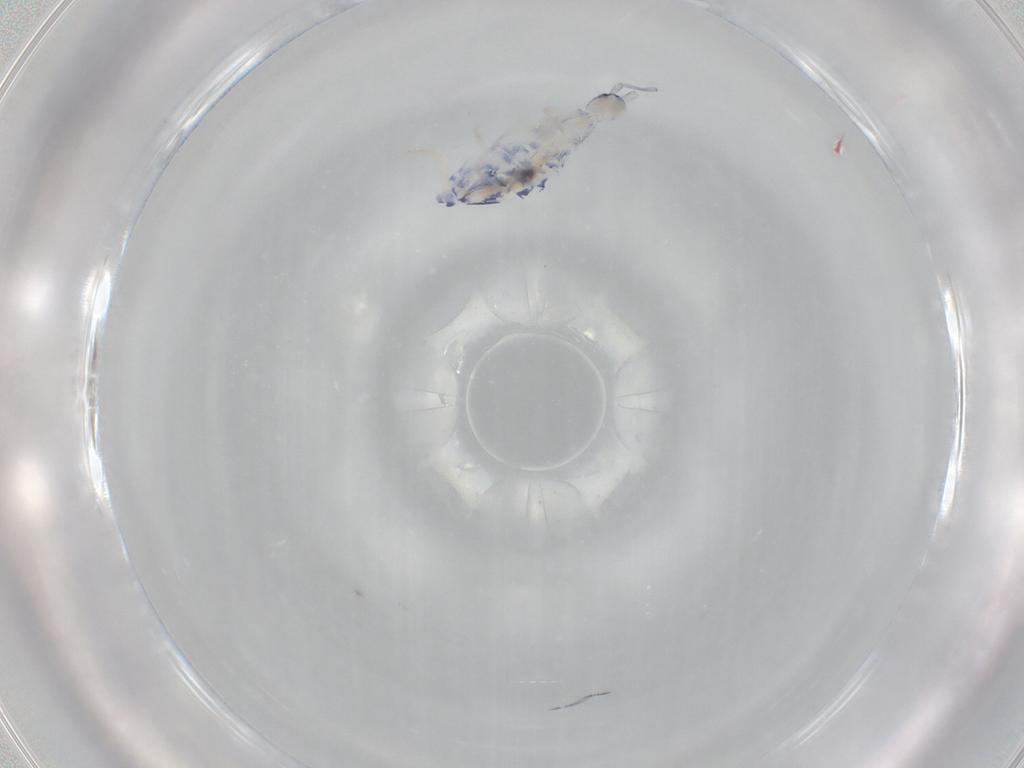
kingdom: Animalia
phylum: Arthropoda
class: Collembola
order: Entomobryomorpha
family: Entomobryidae
